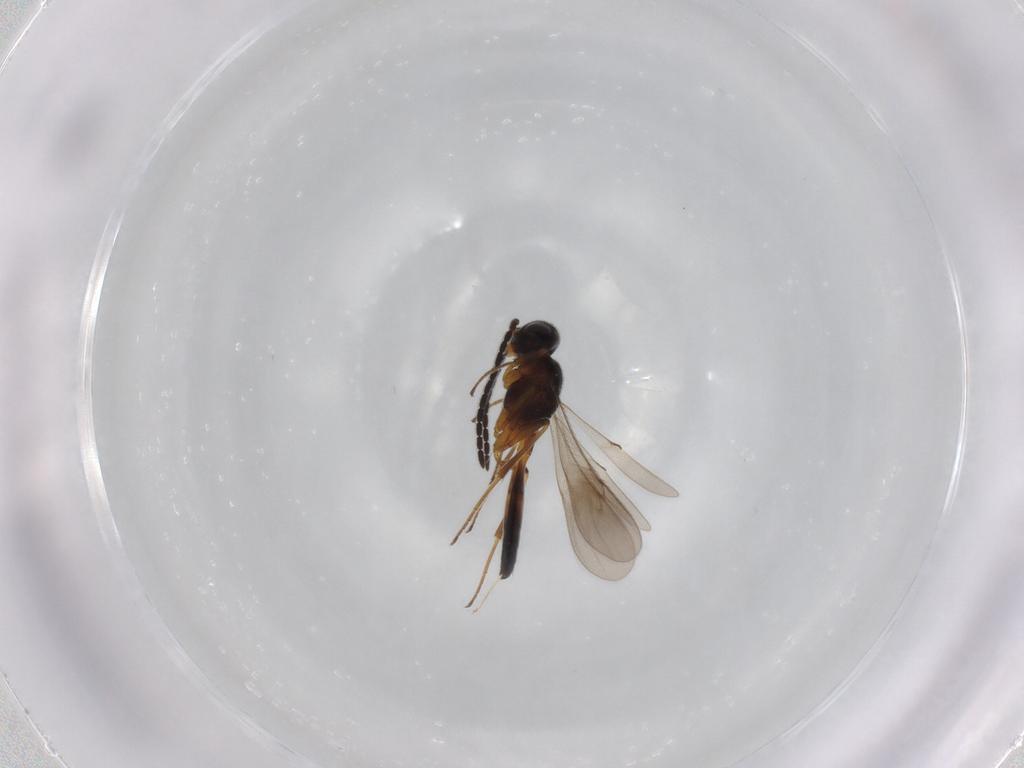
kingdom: Animalia
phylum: Arthropoda
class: Insecta
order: Hymenoptera
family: Scelionidae
